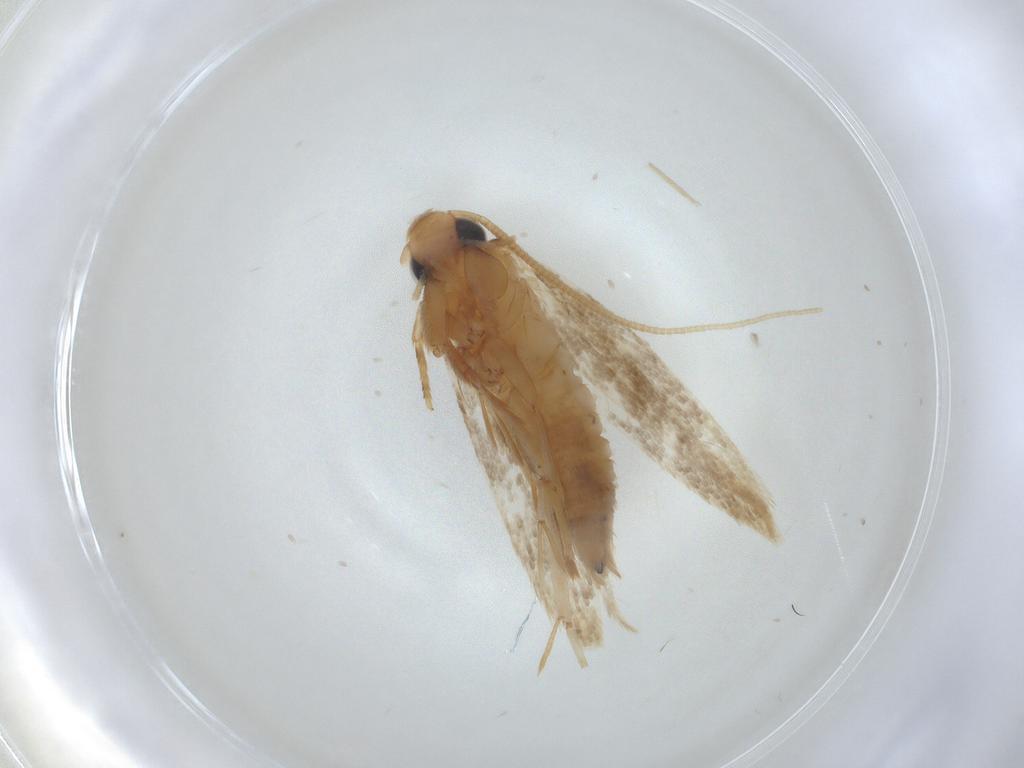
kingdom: Animalia
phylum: Arthropoda
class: Insecta
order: Lepidoptera
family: Tineidae
